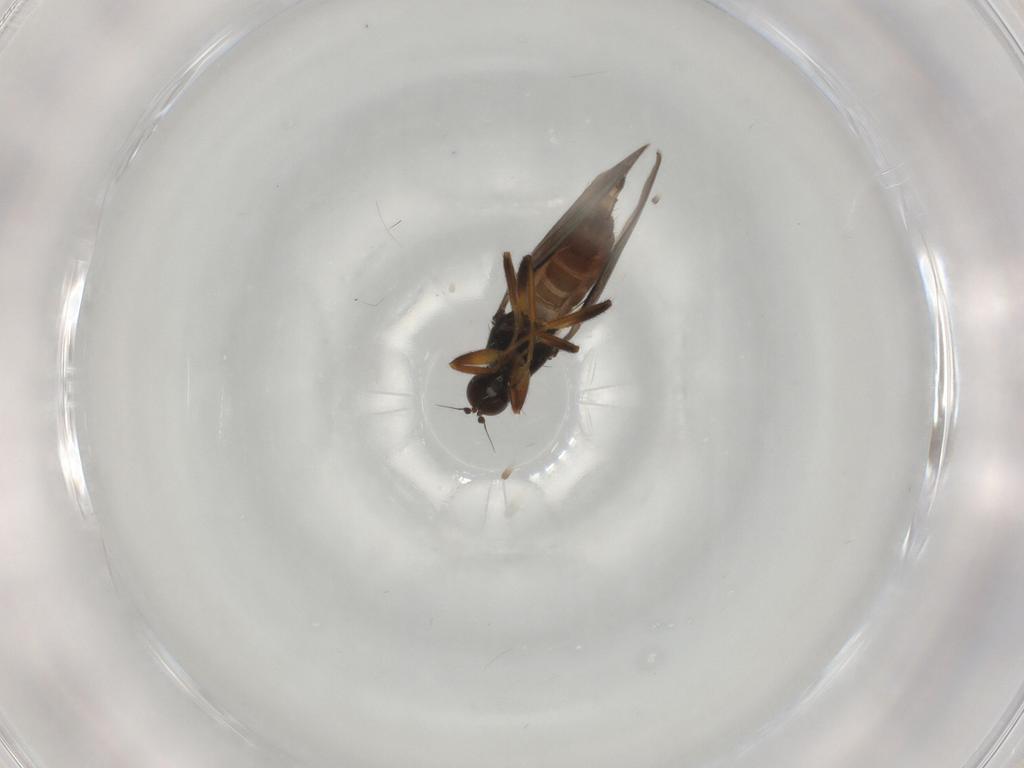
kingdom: Animalia
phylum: Arthropoda
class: Insecta
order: Diptera
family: Hybotidae
